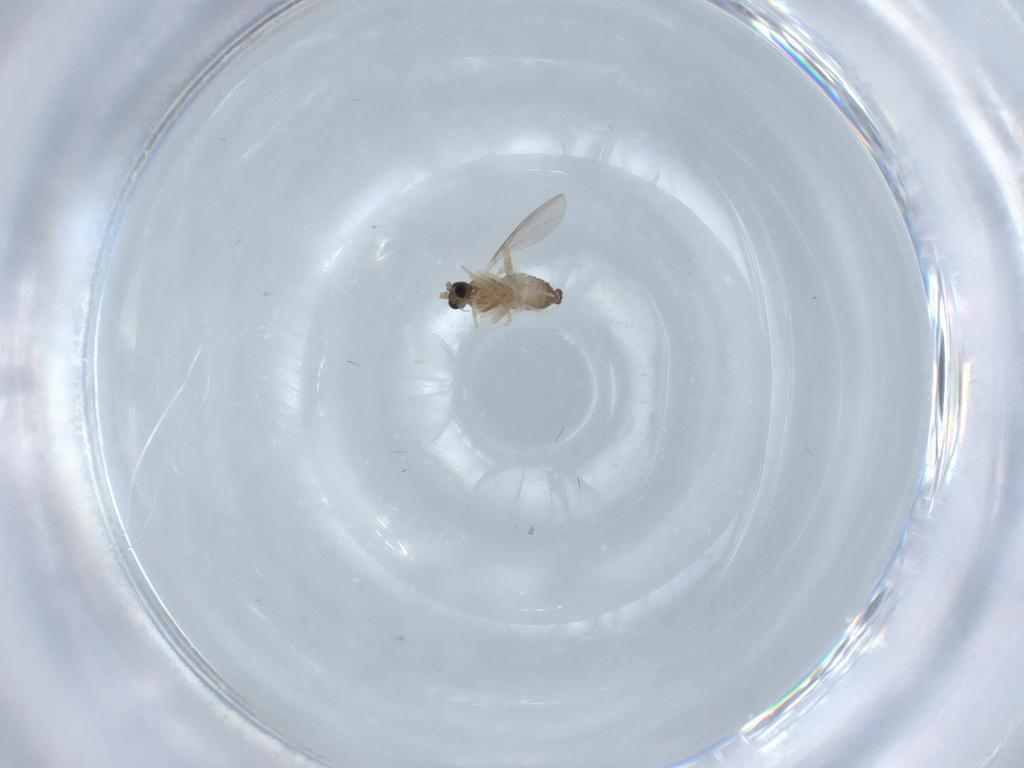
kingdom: Animalia
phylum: Arthropoda
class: Insecta
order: Diptera
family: Cecidomyiidae
